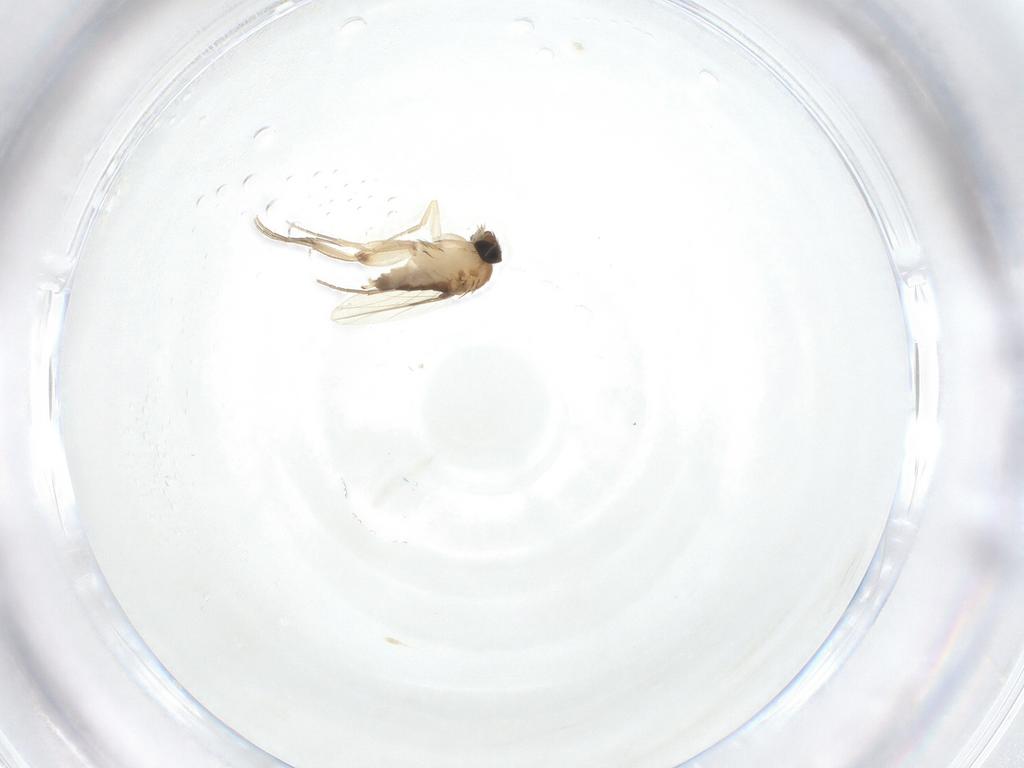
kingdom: Animalia
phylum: Arthropoda
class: Insecta
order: Diptera
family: Phoridae
